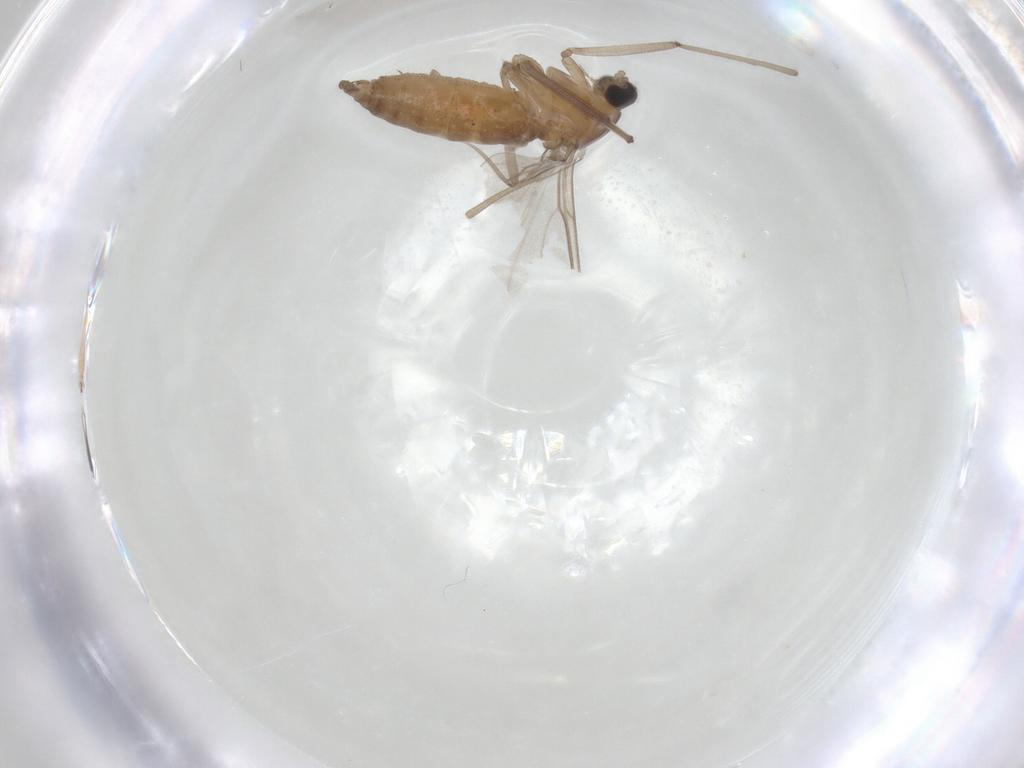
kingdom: Animalia
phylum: Arthropoda
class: Insecta
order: Diptera
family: Cecidomyiidae
